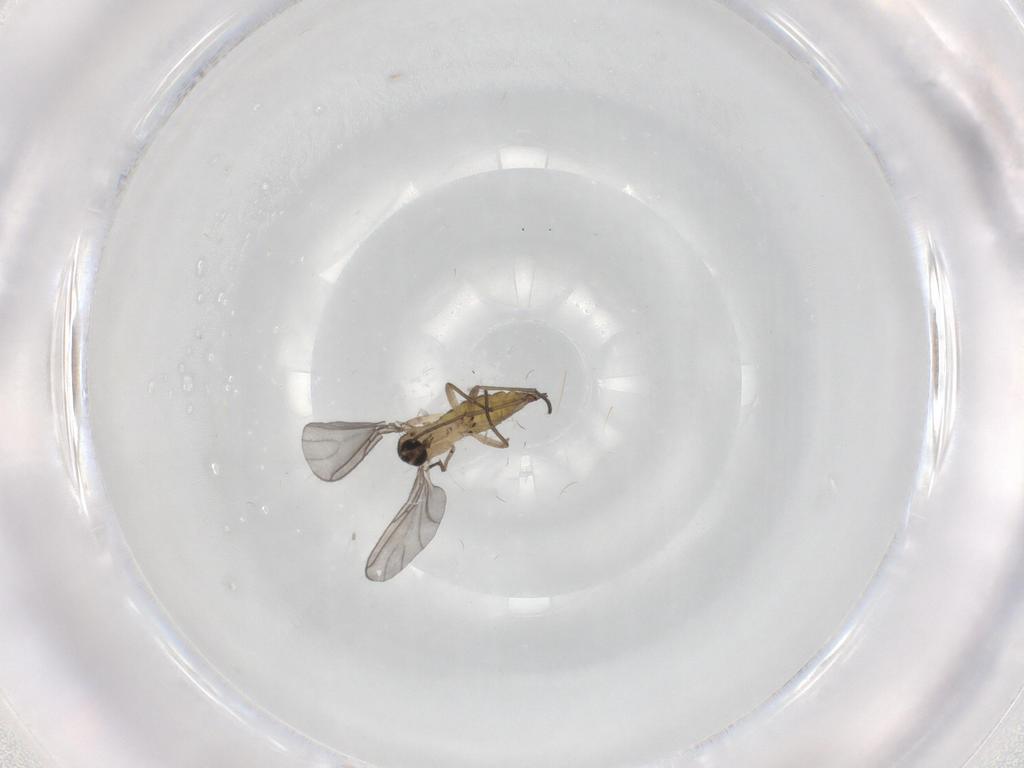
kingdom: Animalia
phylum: Arthropoda
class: Insecta
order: Diptera
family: Sciaridae
